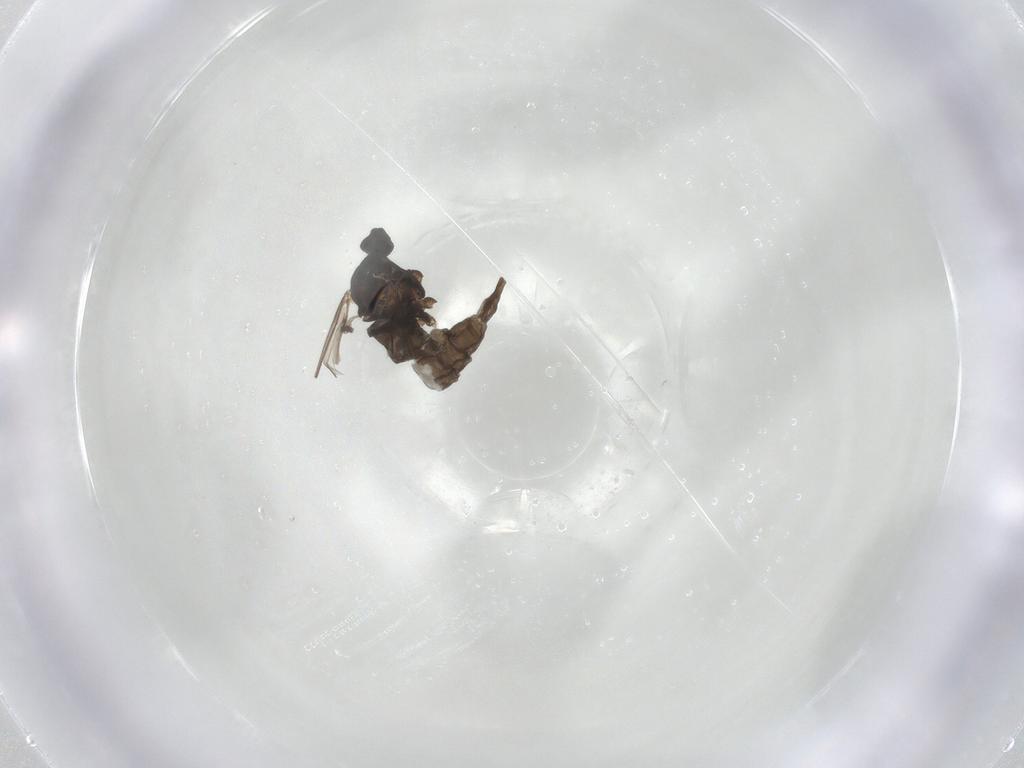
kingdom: Animalia
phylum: Arthropoda
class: Insecta
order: Diptera
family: Cecidomyiidae
